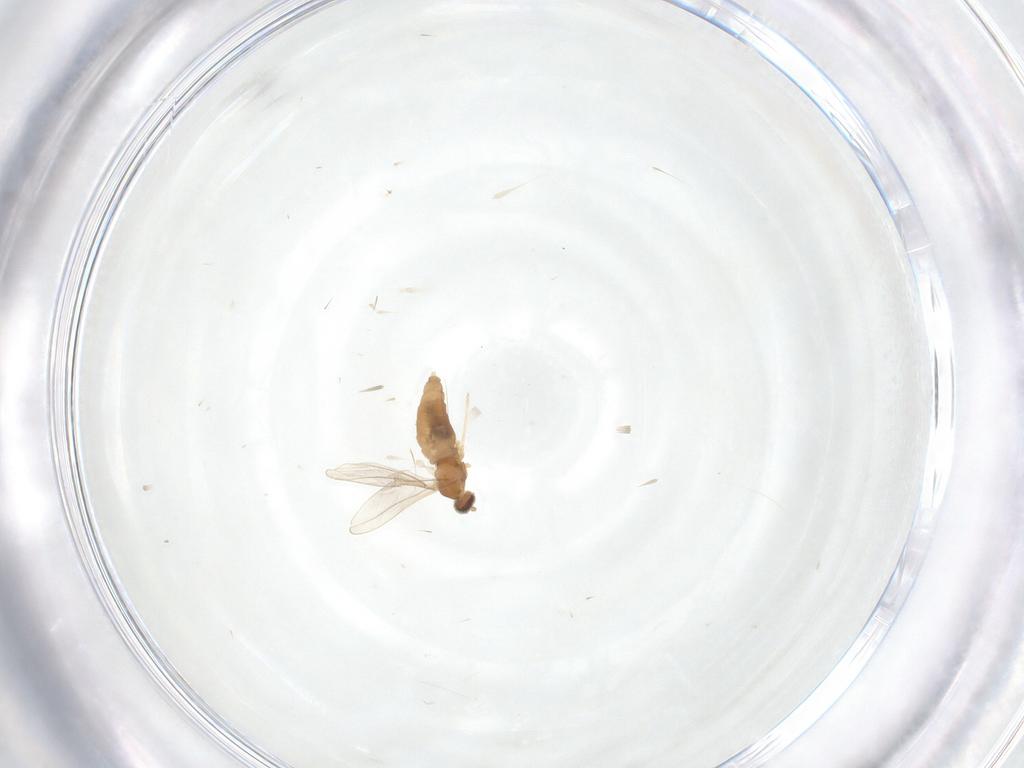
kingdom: Animalia
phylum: Arthropoda
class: Insecta
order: Diptera
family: Cecidomyiidae
